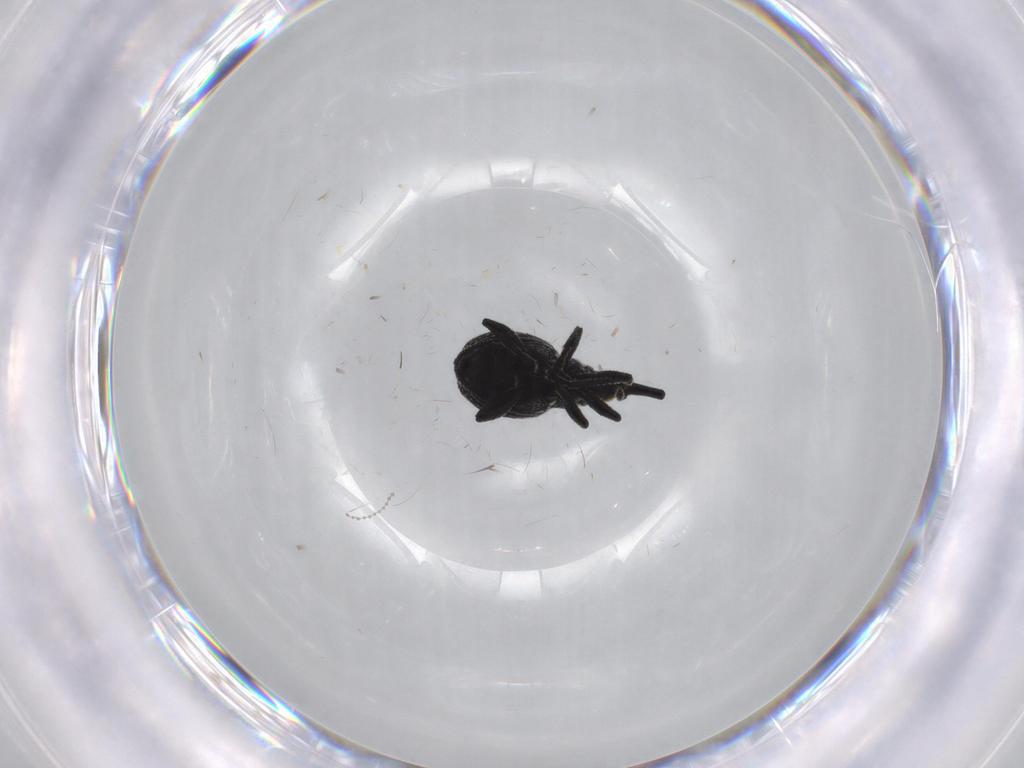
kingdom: Animalia
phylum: Arthropoda
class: Insecta
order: Coleoptera
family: Brentidae
